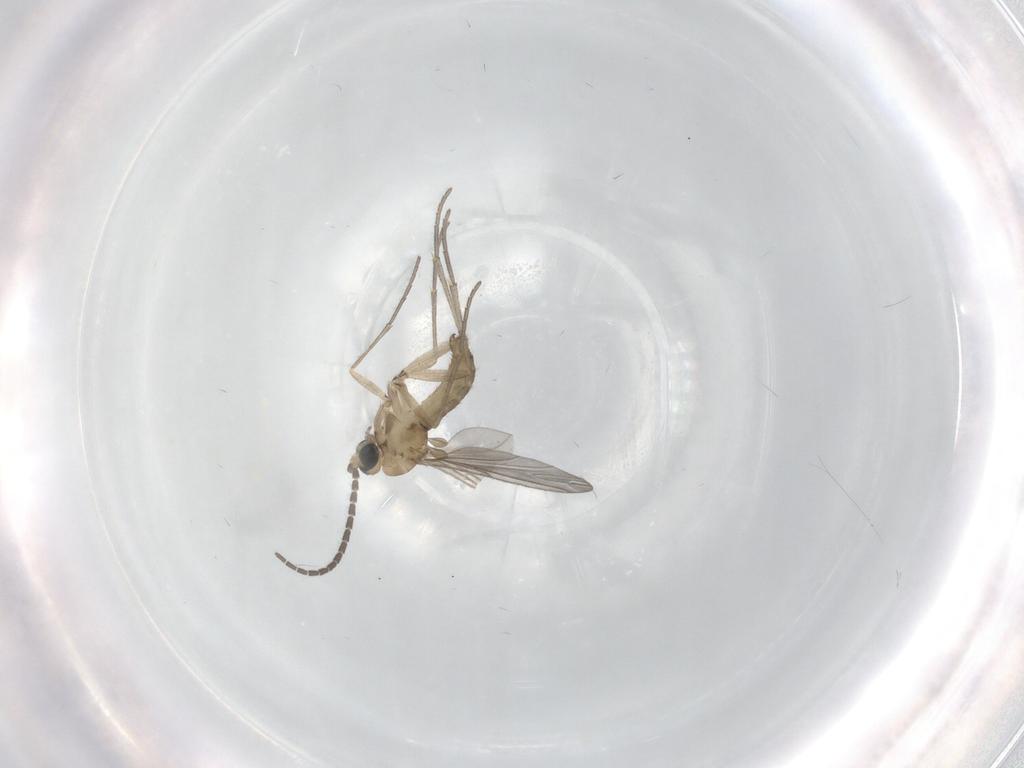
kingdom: Animalia
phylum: Arthropoda
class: Insecta
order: Diptera
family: Sciaridae
